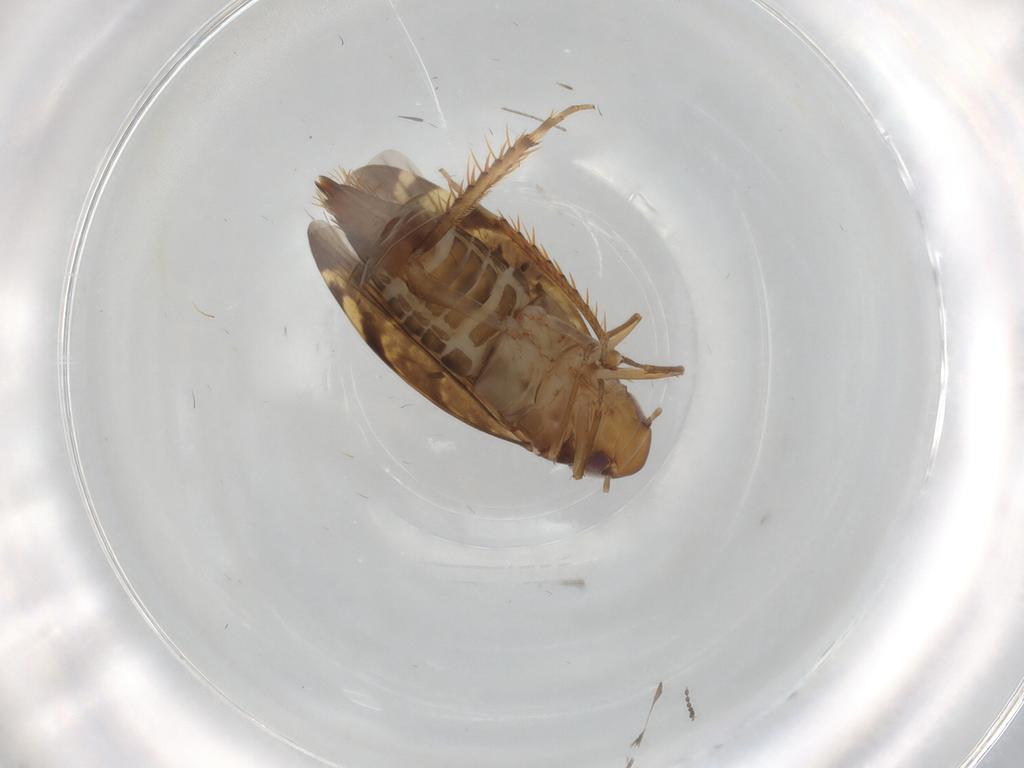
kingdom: Animalia
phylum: Arthropoda
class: Insecta
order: Hemiptera
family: Cicadellidae
